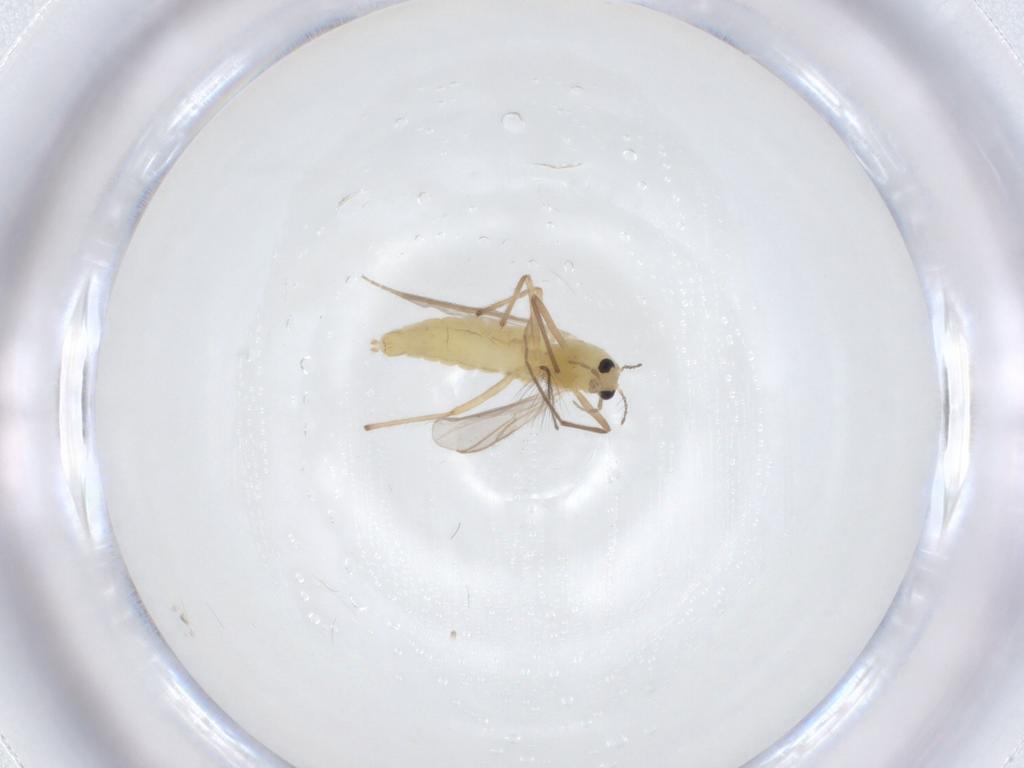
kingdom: Animalia
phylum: Arthropoda
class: Insecta
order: Diptera
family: Chironomidae
